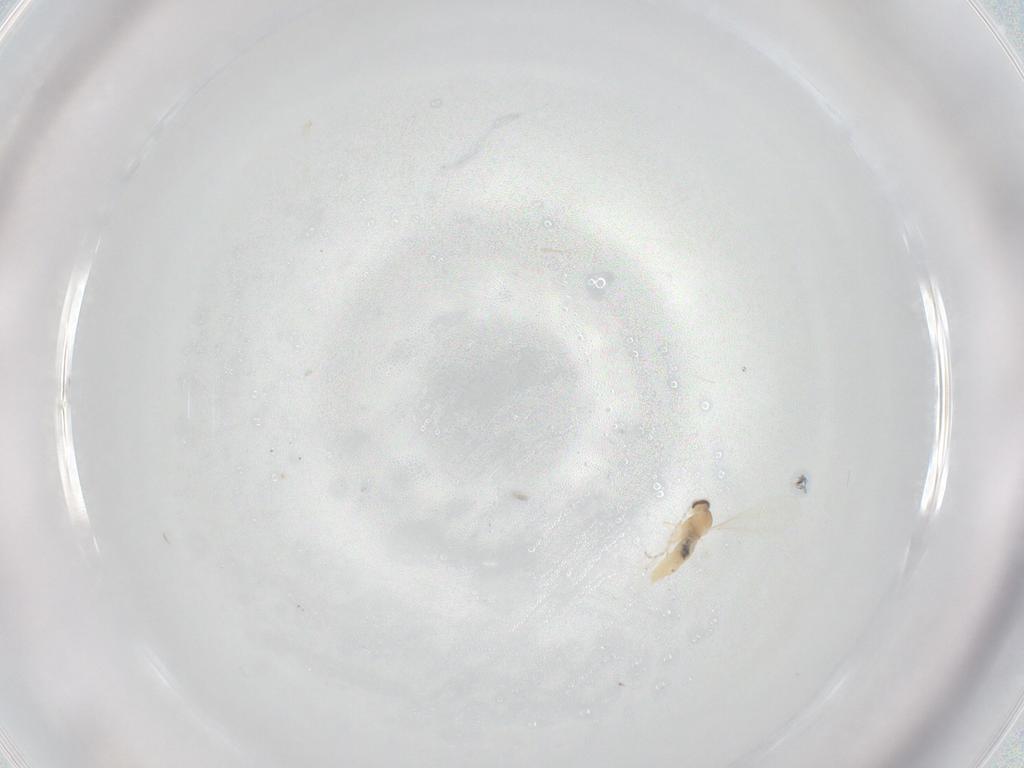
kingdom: Animalia
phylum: Arthropoda
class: Insecta
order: Diptera
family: Cecidomyiidae
